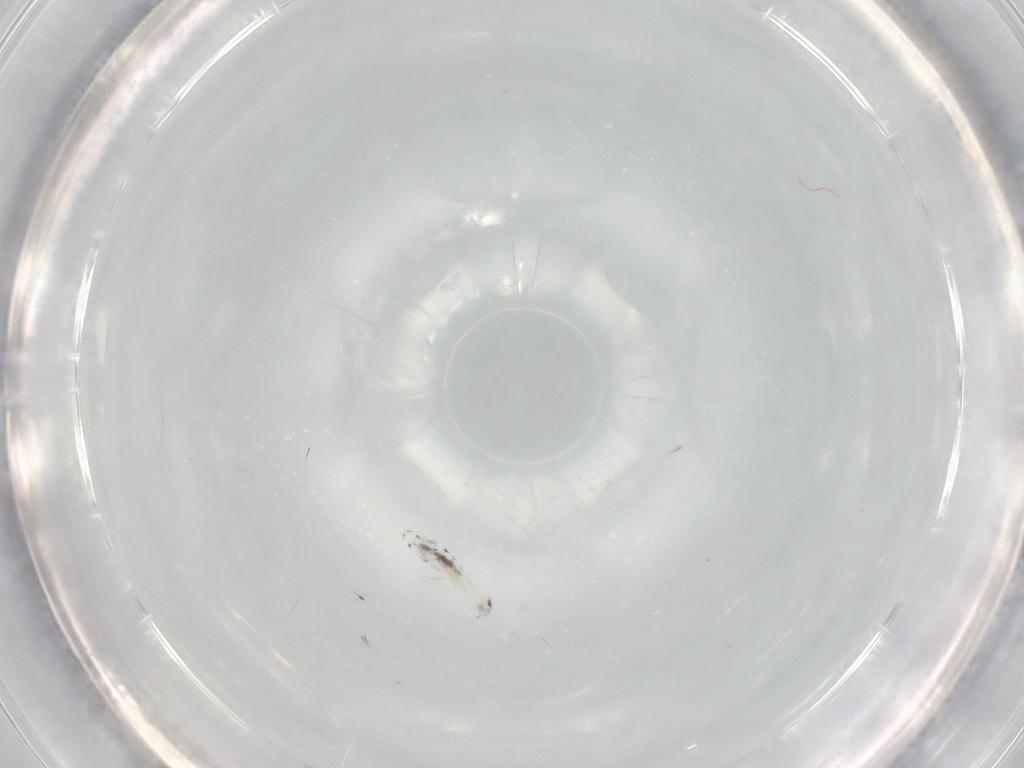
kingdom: Animalia
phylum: Arthropoda
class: Collembola
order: Entomobryomorpha
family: Entomobryidae
